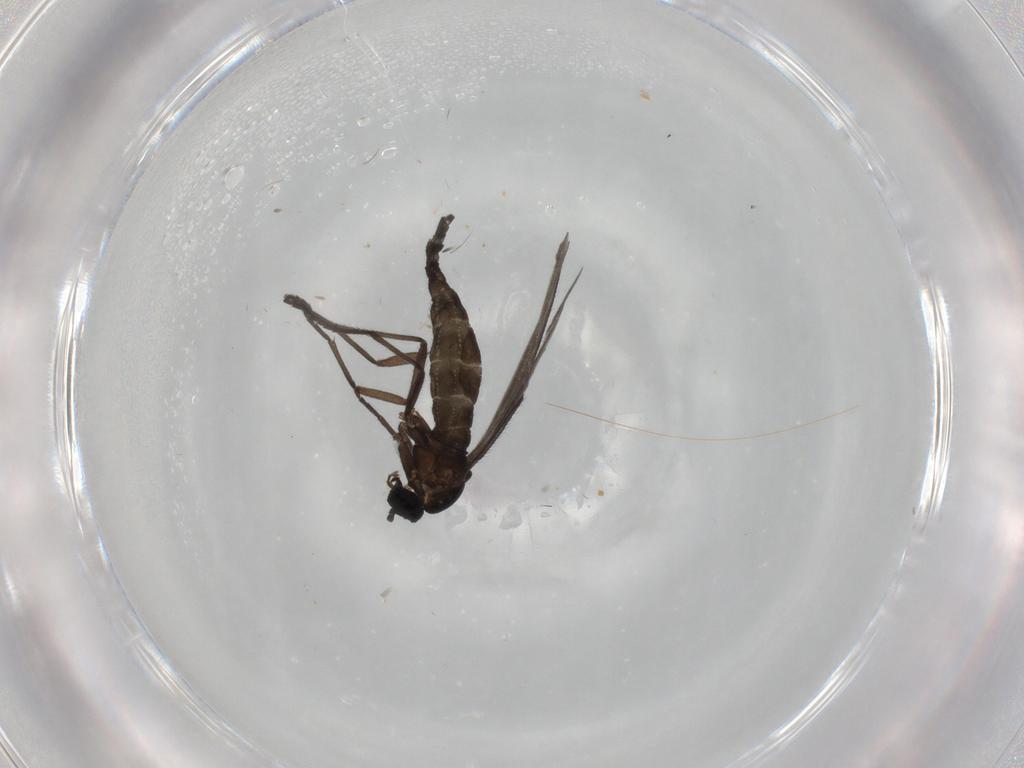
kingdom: Animalia
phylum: Arthropoda
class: Insecta
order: Diptera
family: Sciaridae
